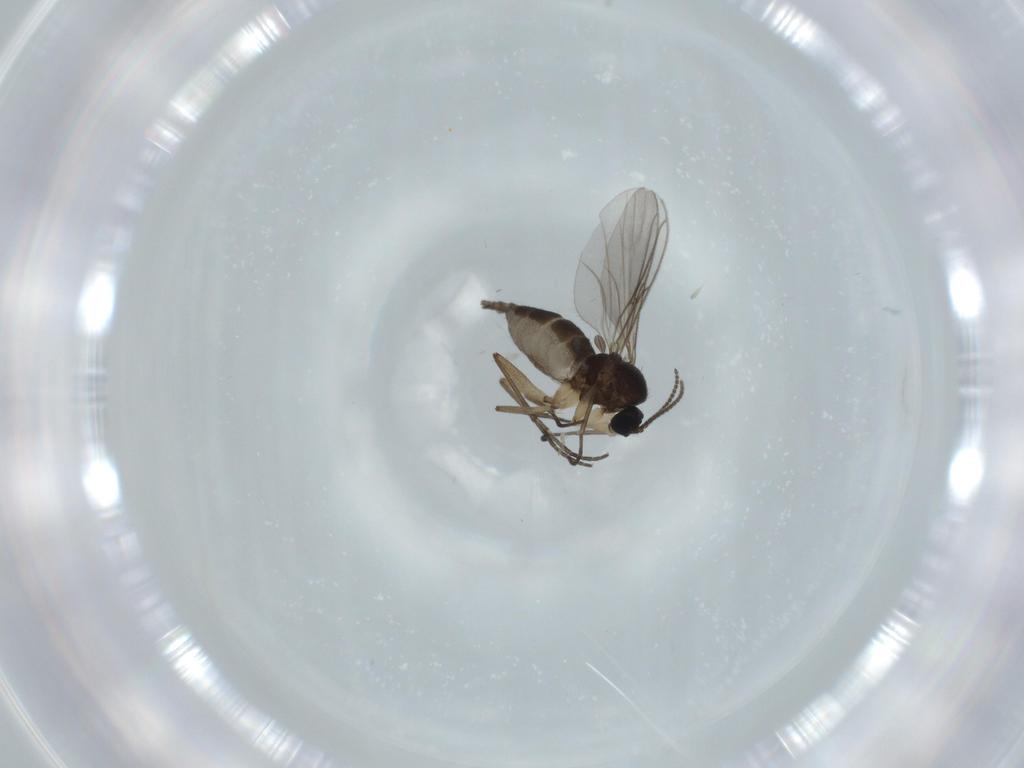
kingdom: Animalia
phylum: Arthropoda
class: Insecta
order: Diptera
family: Sciaridae
